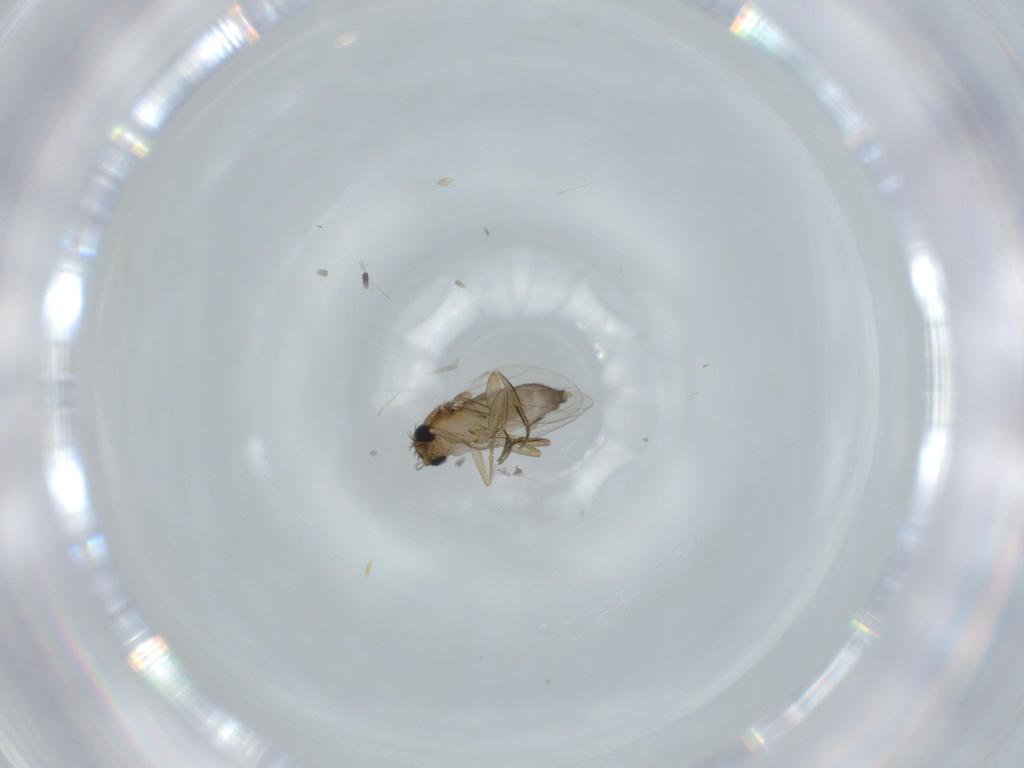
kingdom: Animalia
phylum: Arthropoda
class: Insecta
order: Diptera
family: Phoridae
